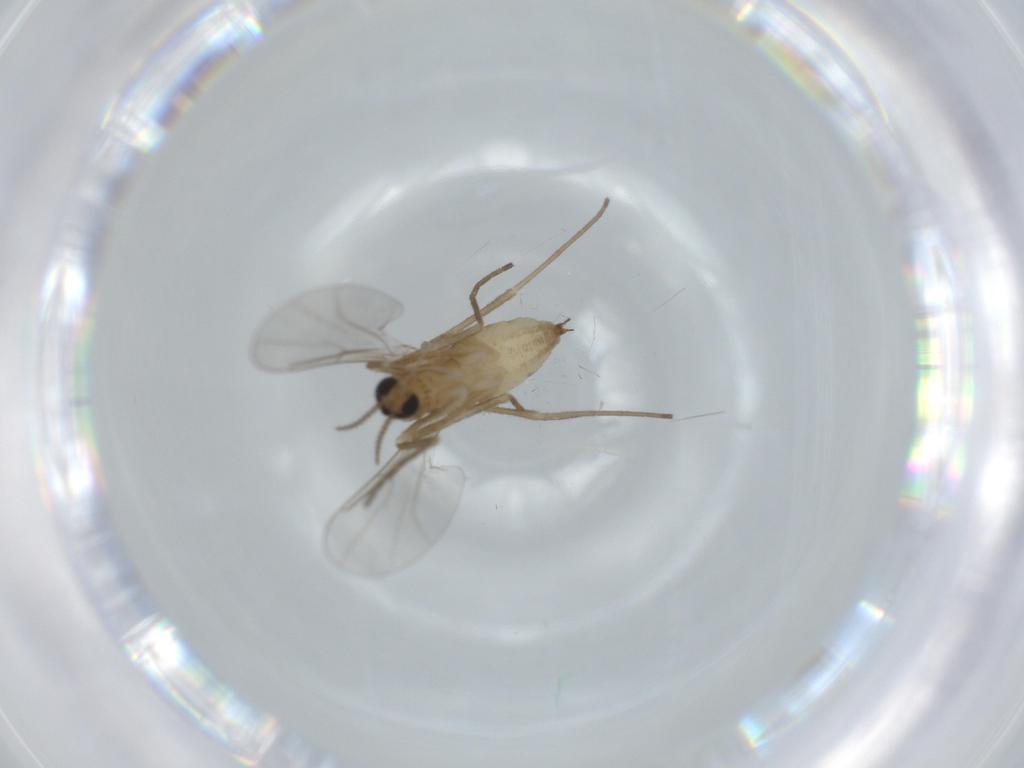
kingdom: Animalia
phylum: Arthropoda
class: Insecta
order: Diptera
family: Cecidomyiidae
